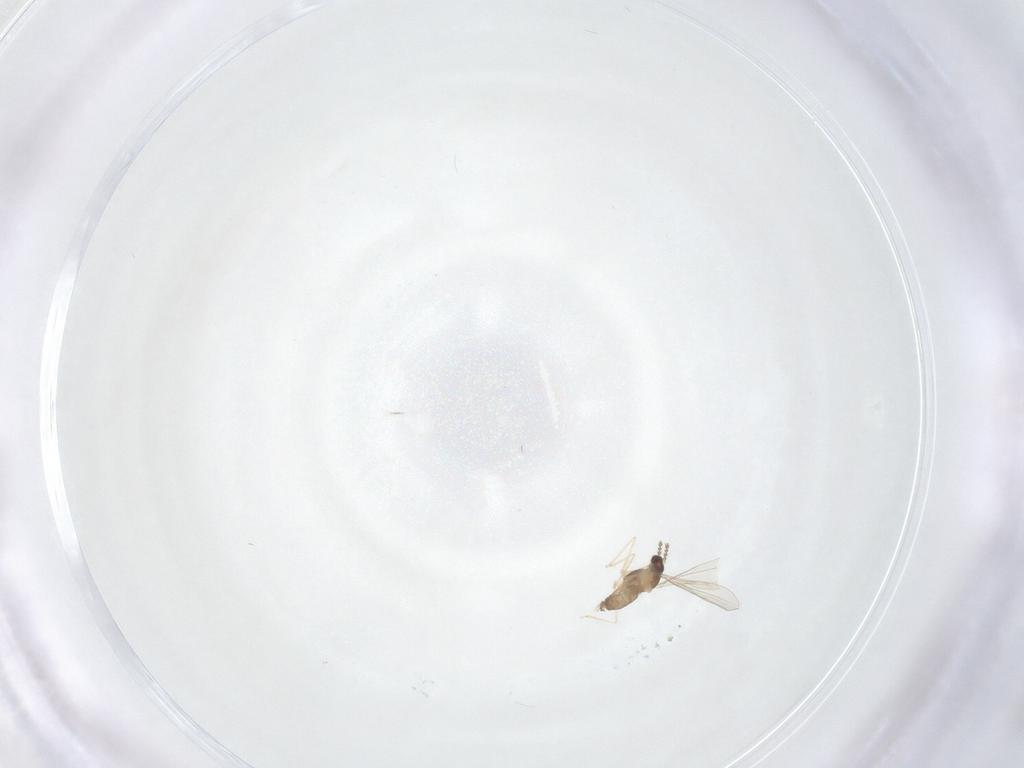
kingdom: Animalia
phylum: Arthropoda
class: Insecta
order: Diptera
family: Cecidomyiidae
